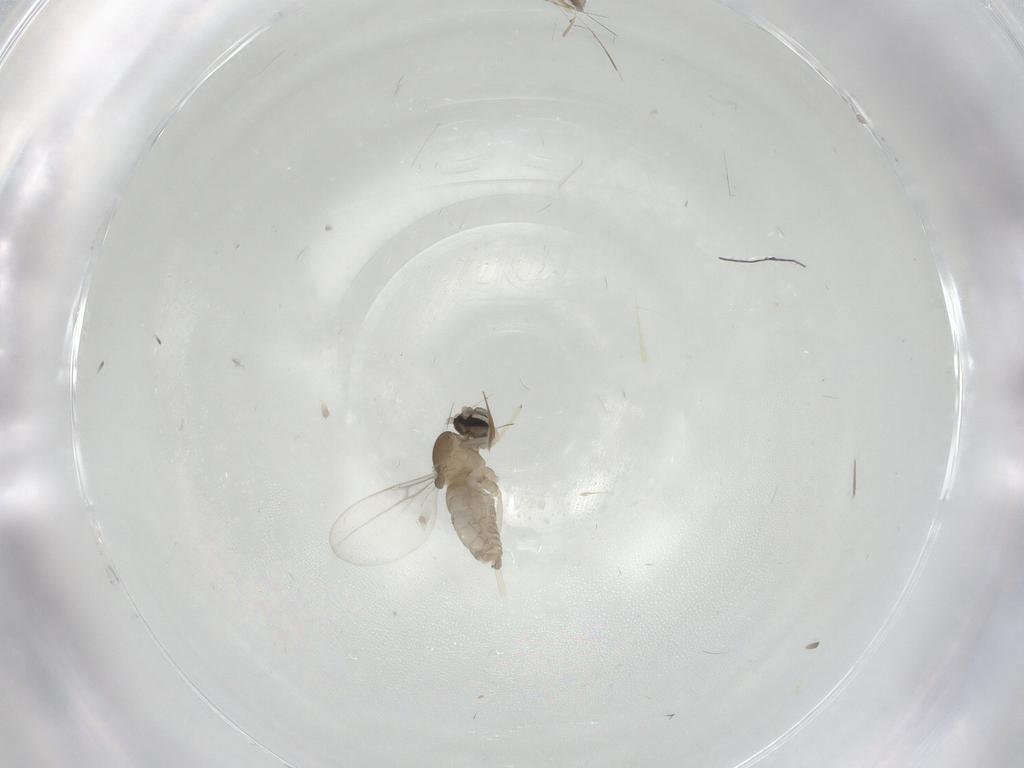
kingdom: Animalia
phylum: Arthropoda
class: Insecta
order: Diptera
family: Cecidomyiidae
